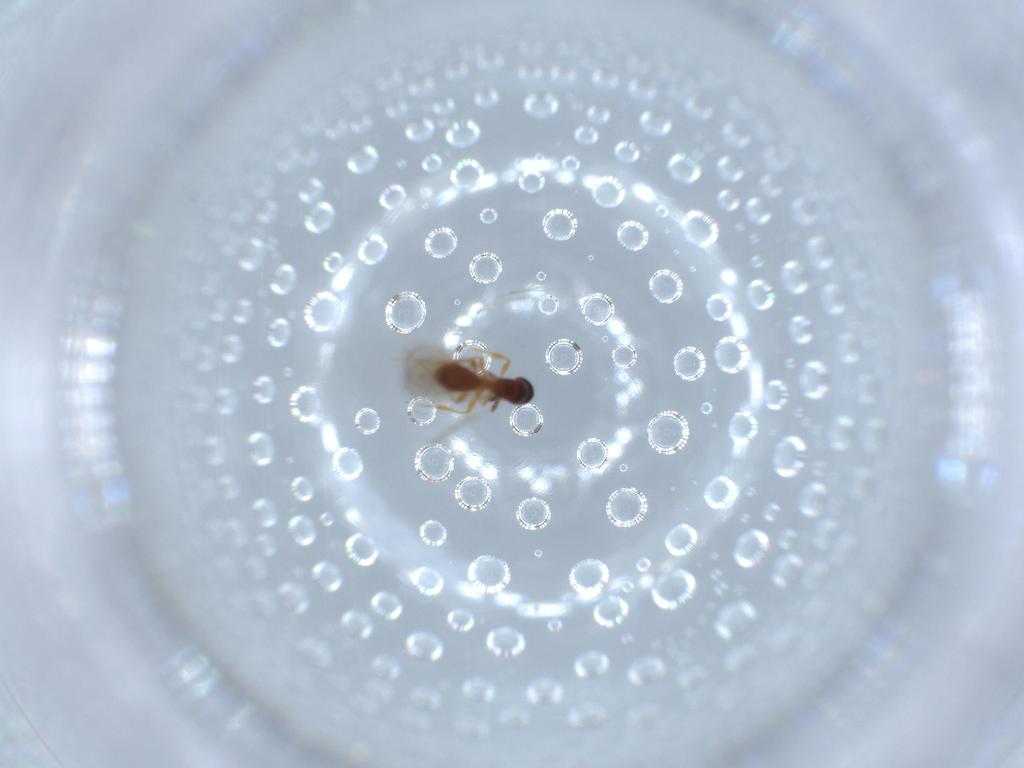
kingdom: Animalia
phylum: Arthropoda
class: Insecta
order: Hymenoptera
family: Platygastridae
